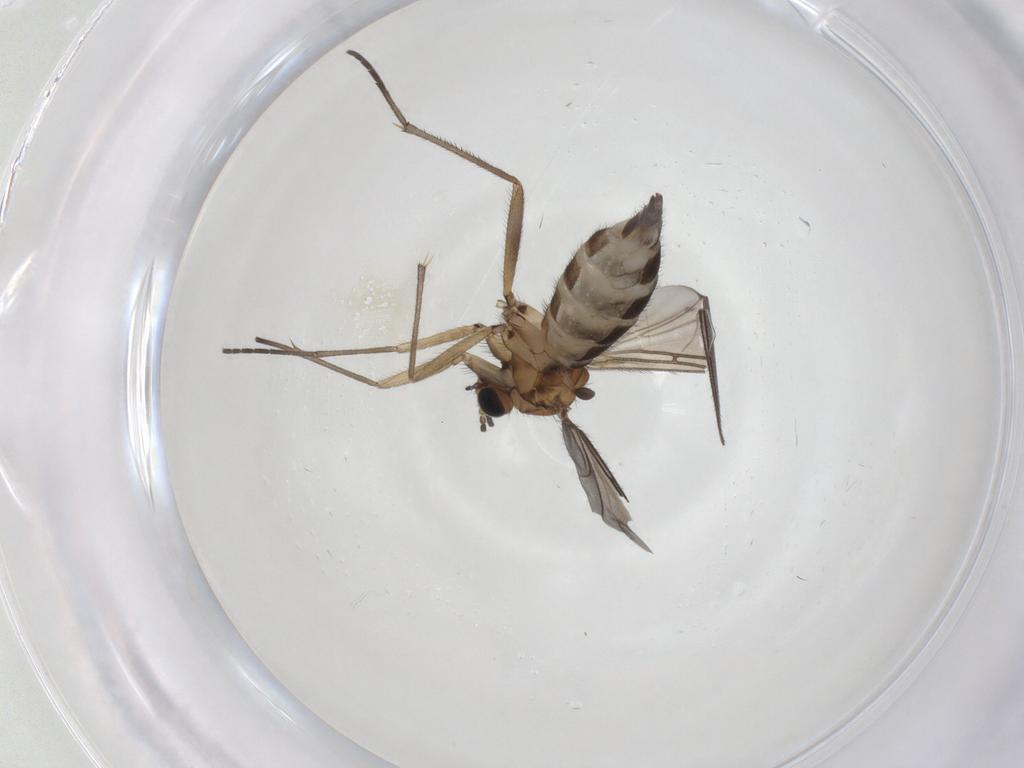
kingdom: Animalia
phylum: Arthropoda
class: Insecta
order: Diptera
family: Sciaridae
